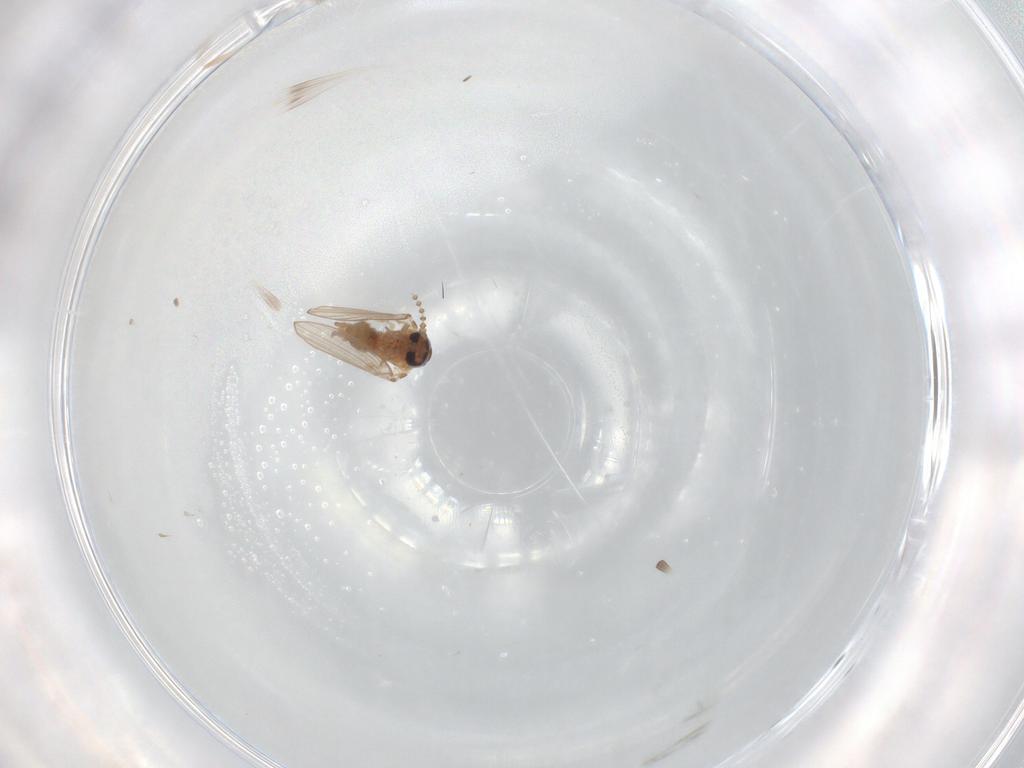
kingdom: Animalia
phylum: Arthropoda
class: Insecta
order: Diptera
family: Psychodidae
